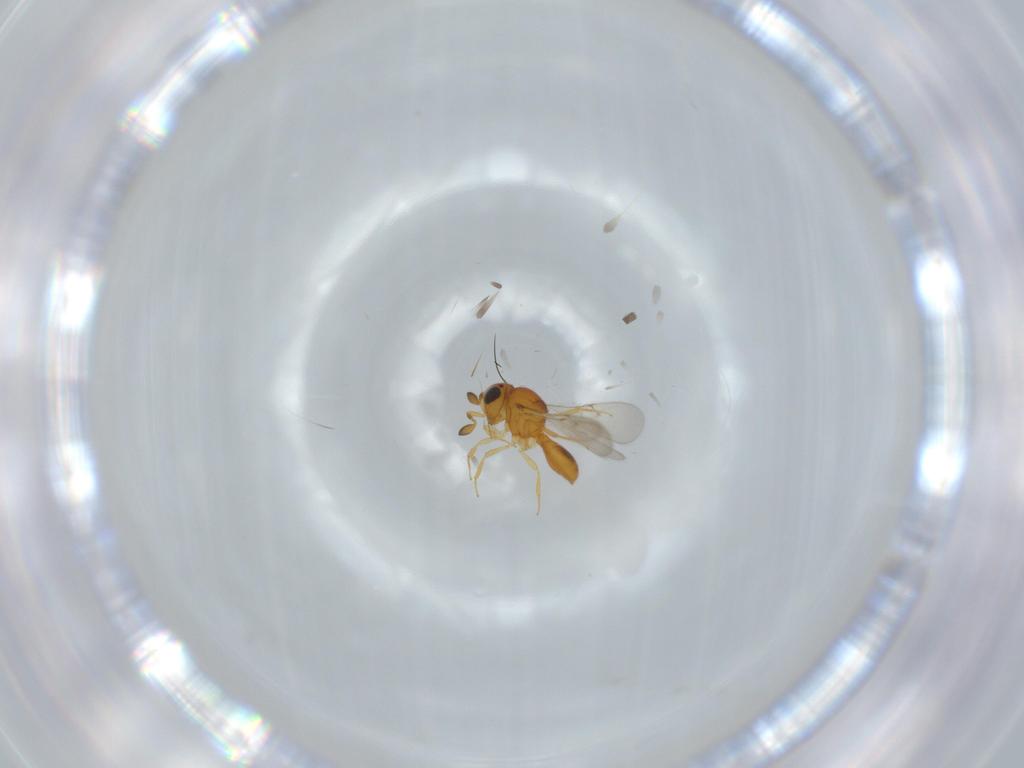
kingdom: Animalia
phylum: Arthropoda
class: Insecta
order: Hymenoptera
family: Scelionidae
